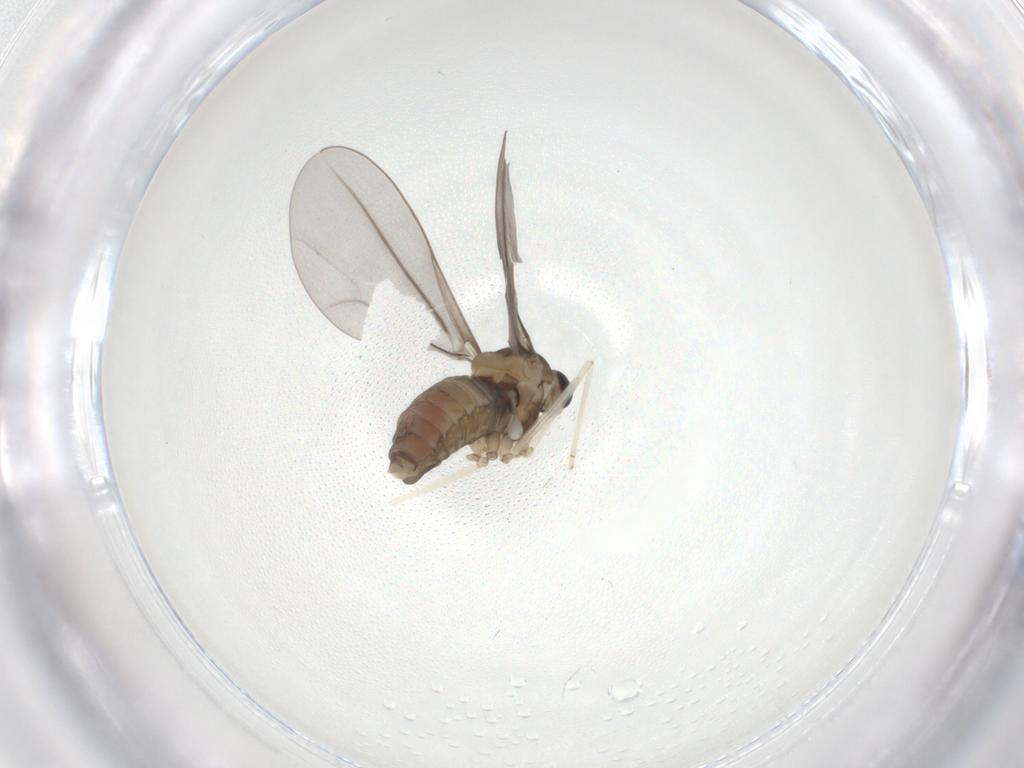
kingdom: Animalia
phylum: Arthropoda
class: Insecta
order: Diptera
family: Cecidomyiidae
